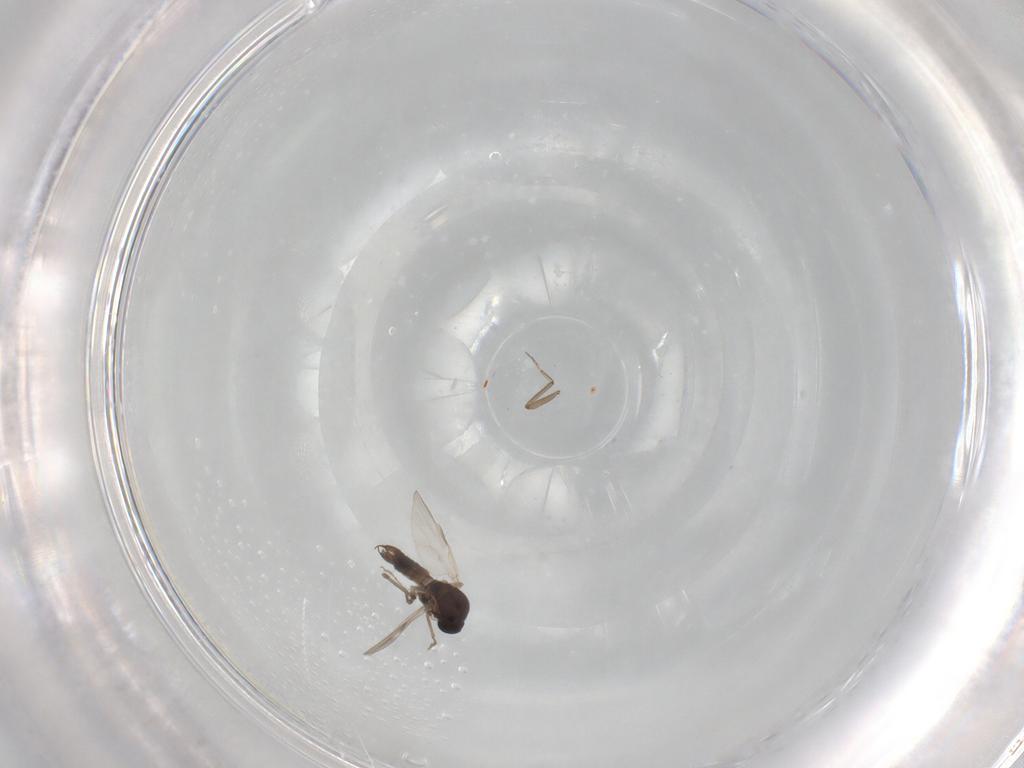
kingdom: Animalia
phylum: Arthropoda
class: Insecta
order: Diptera
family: Ceratopogonidae
